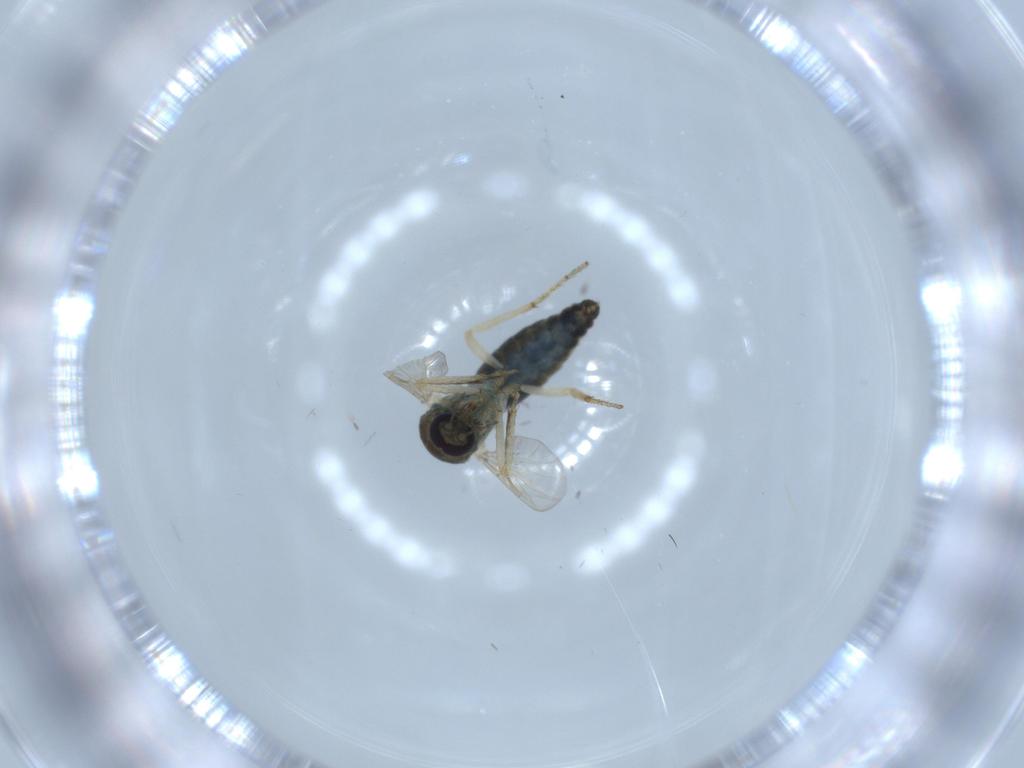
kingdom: Animalia
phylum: Arthropoda
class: Insecta
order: Diptera
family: Ceratopogonidae
